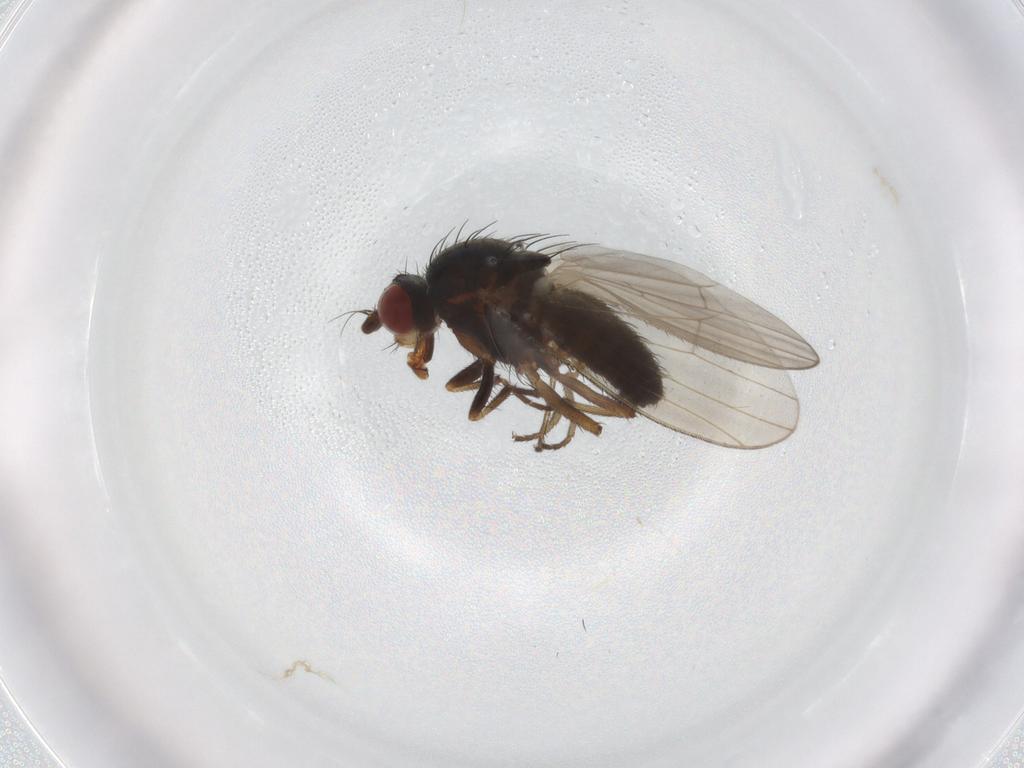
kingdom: Animalia
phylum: Arthropoda
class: Insecta
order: Diptera
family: Heleomyzidae
